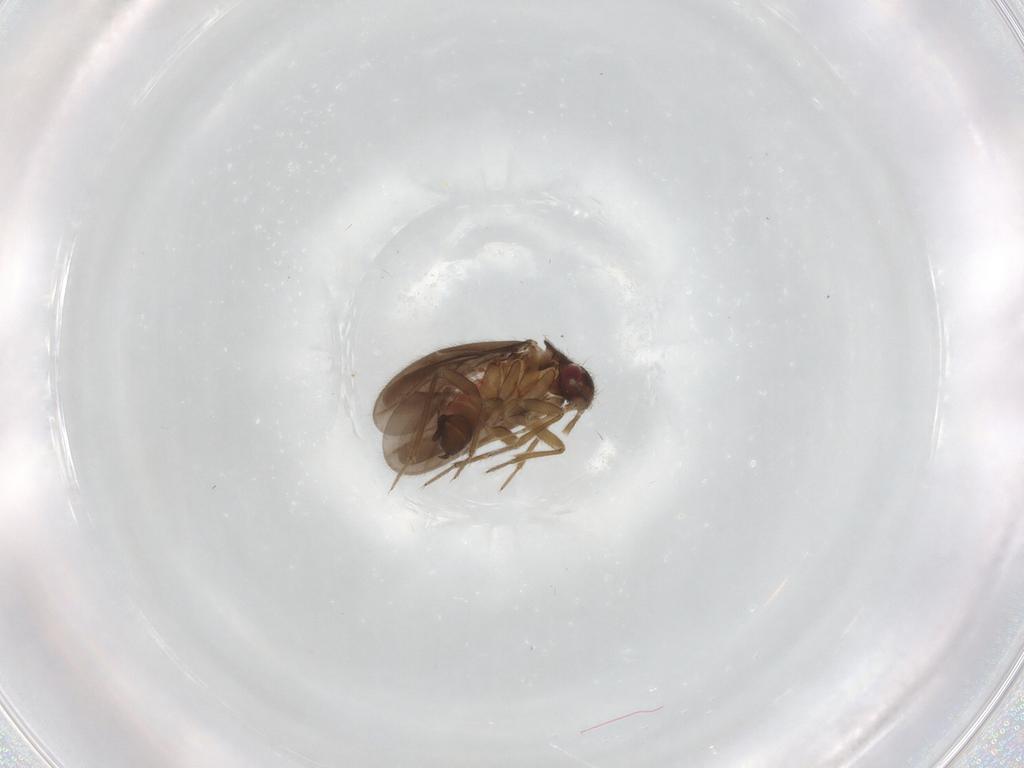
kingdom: Animalia
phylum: Arthropoda
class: Insecta
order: Hemiptera
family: Ceratocombidae
